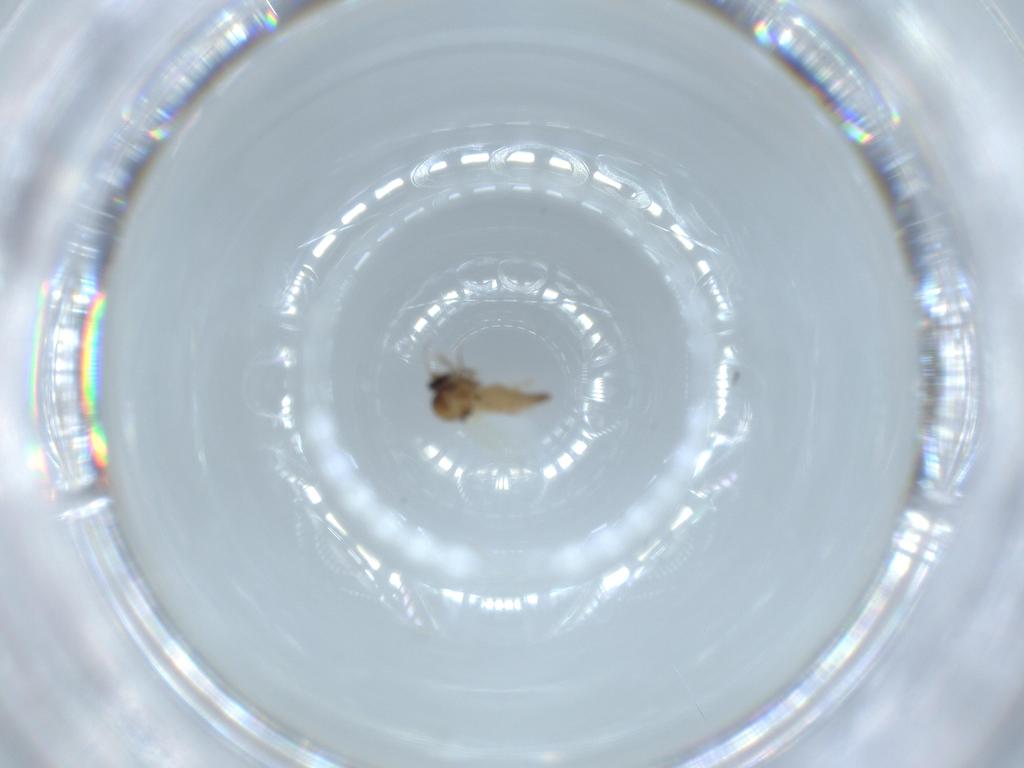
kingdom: Animalia
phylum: Arthropoda
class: Insecta
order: Diptera
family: Ceratopogonidae
